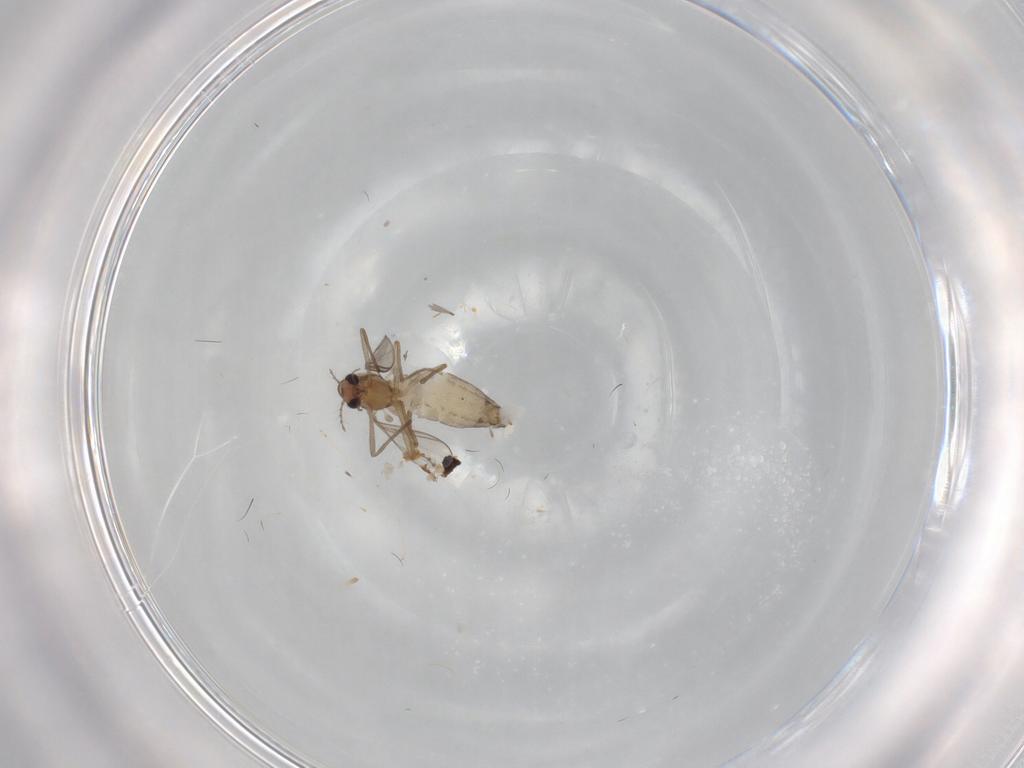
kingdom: Animalia
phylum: Arthropoda
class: Insecta
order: Diptera
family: Chironomidae
